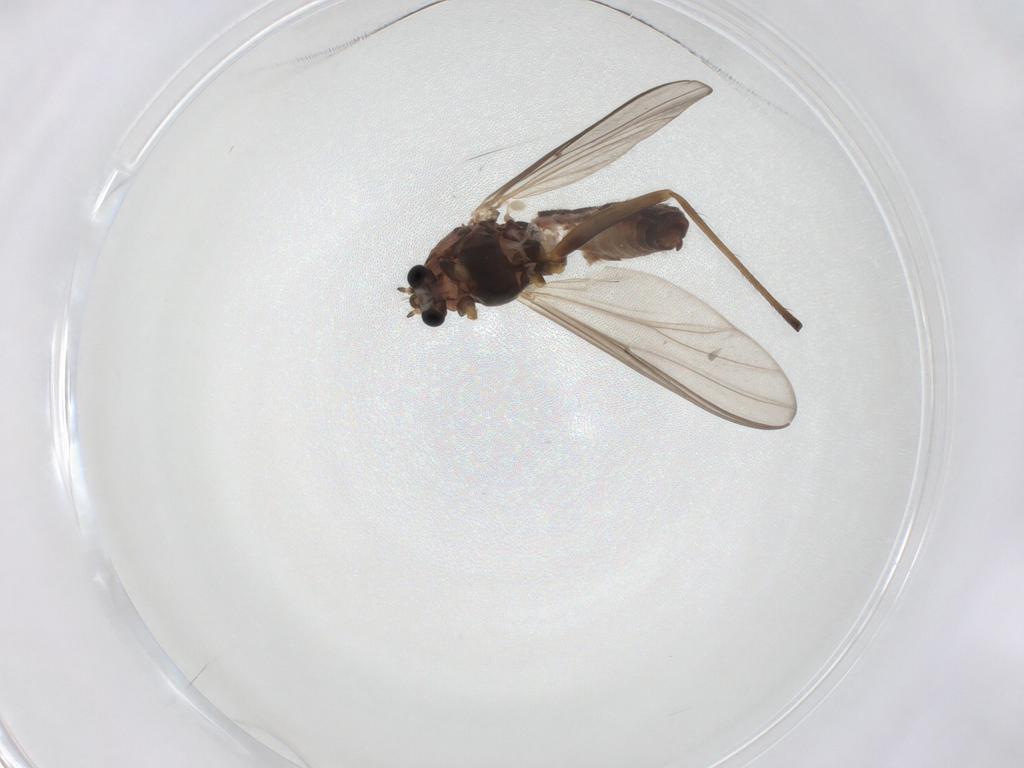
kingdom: Animalia
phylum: Arthropoda
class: Insecta
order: Diptera
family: Chironomidae
